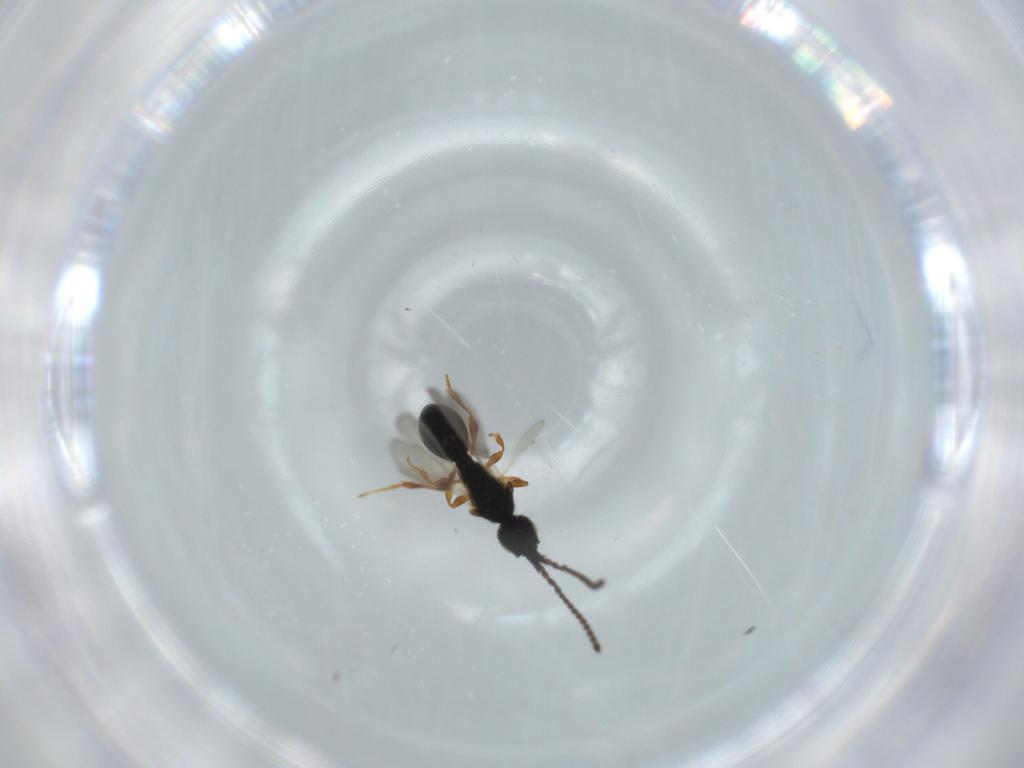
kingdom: Animalia
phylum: Arthropoda
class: Insecta
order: Hymenoptera
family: Diapriidae
